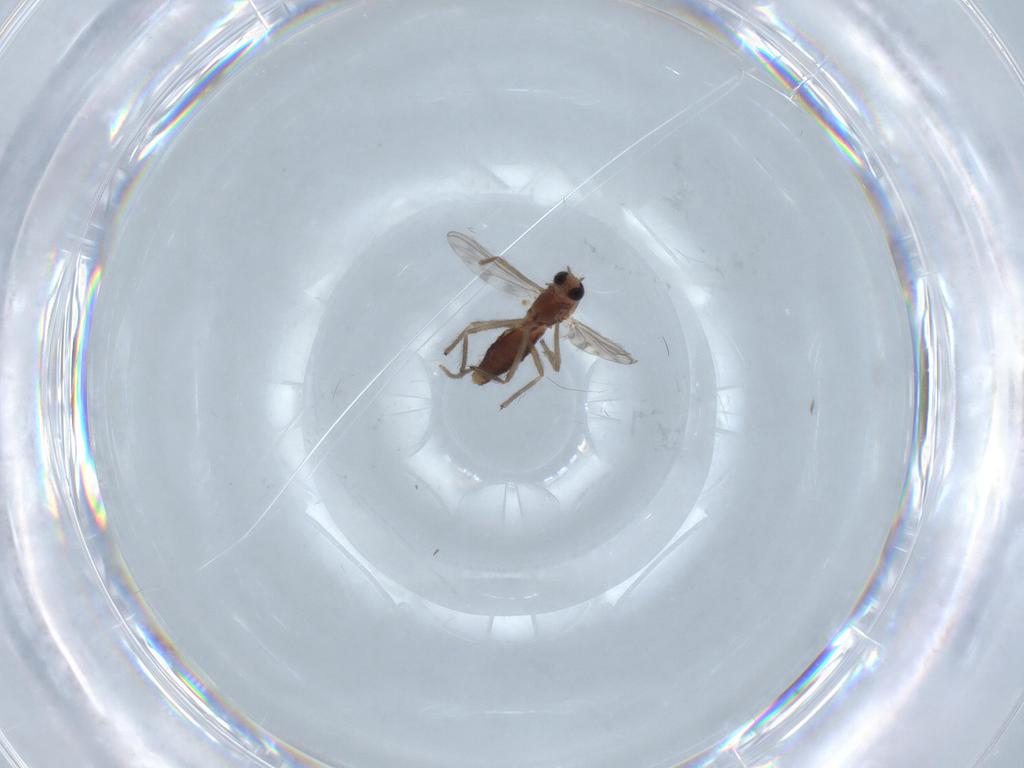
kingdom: Animalia
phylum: Arthropoda
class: Insecta
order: Diptera
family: Chironomidae
